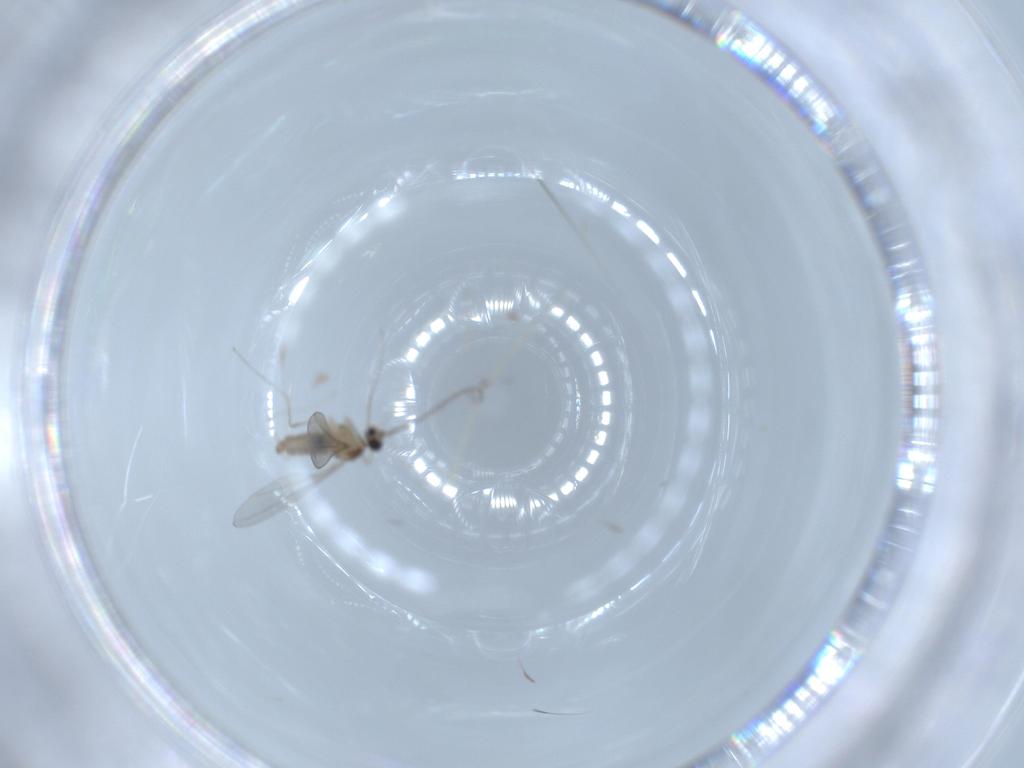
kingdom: Animalia
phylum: Arthropoda
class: Insecta
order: Diptera
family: Cecidomyiidae
